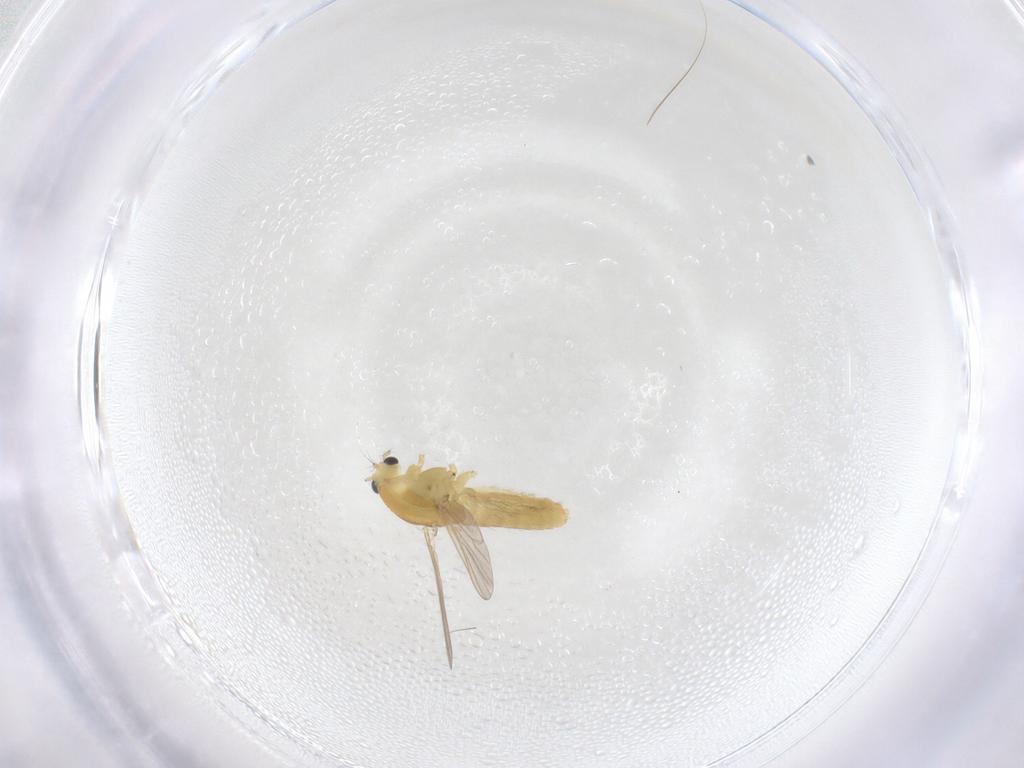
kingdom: Animalia
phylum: Arthropoda
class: Insecta
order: Diptera
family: Chironomidae
